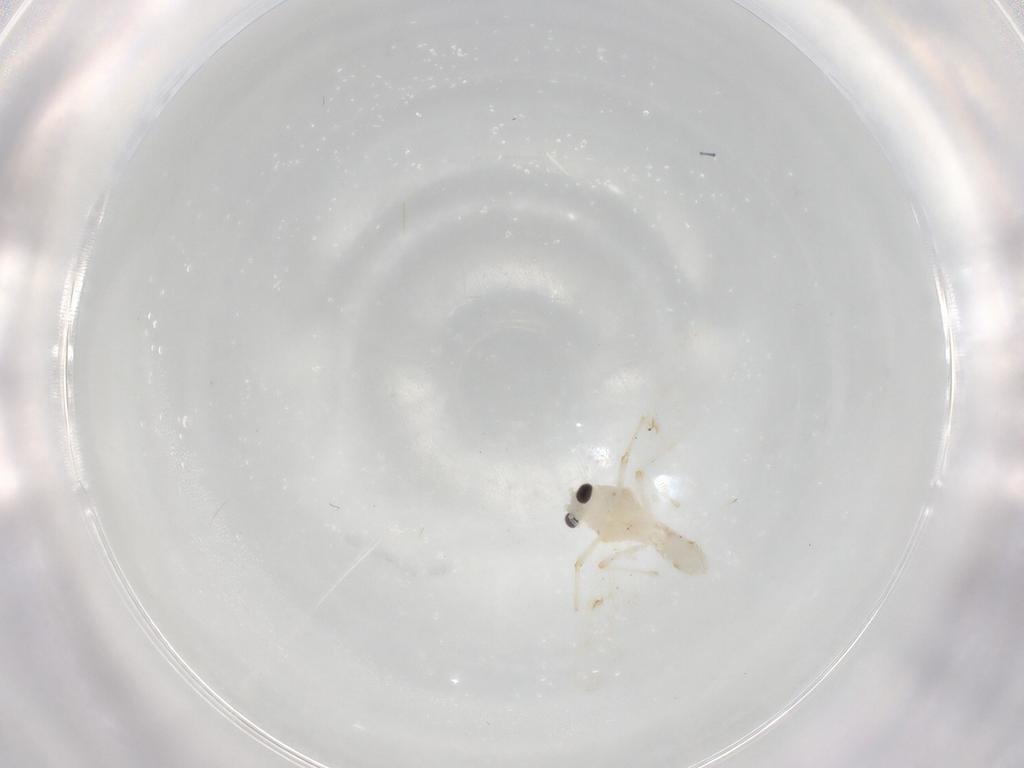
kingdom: Animalia
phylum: Arthropoda
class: Insecta
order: Diptera
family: Chironomidae
